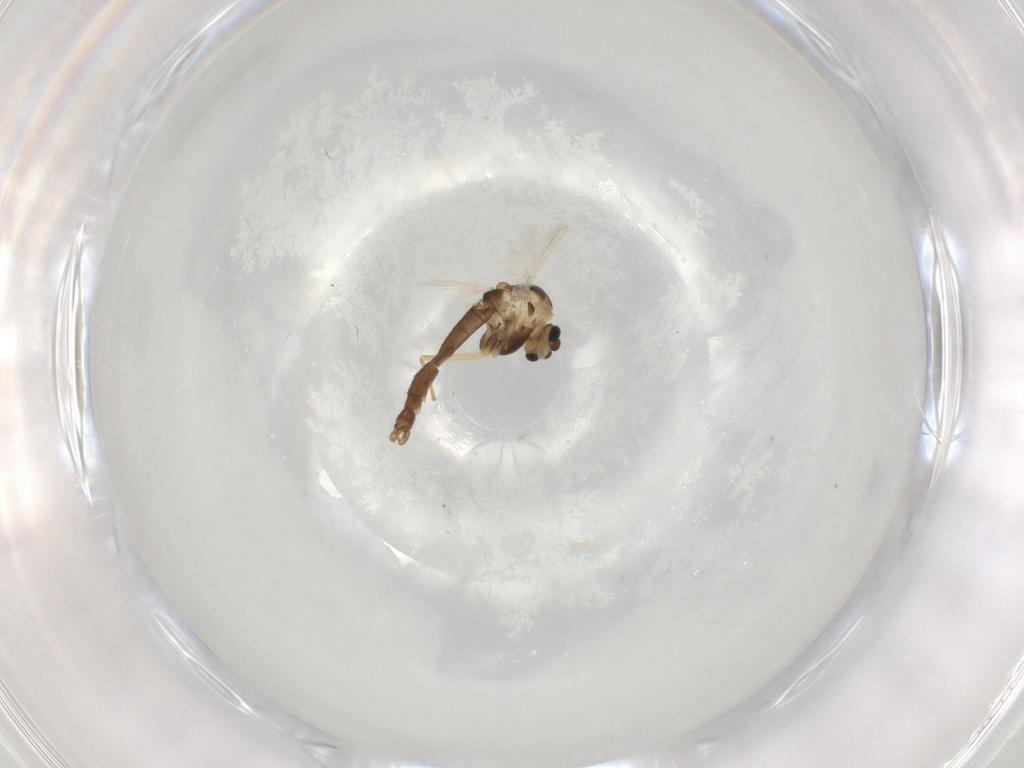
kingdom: Animalia
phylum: Arthropoda
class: Insecta
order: Diptera
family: Chironomidae
